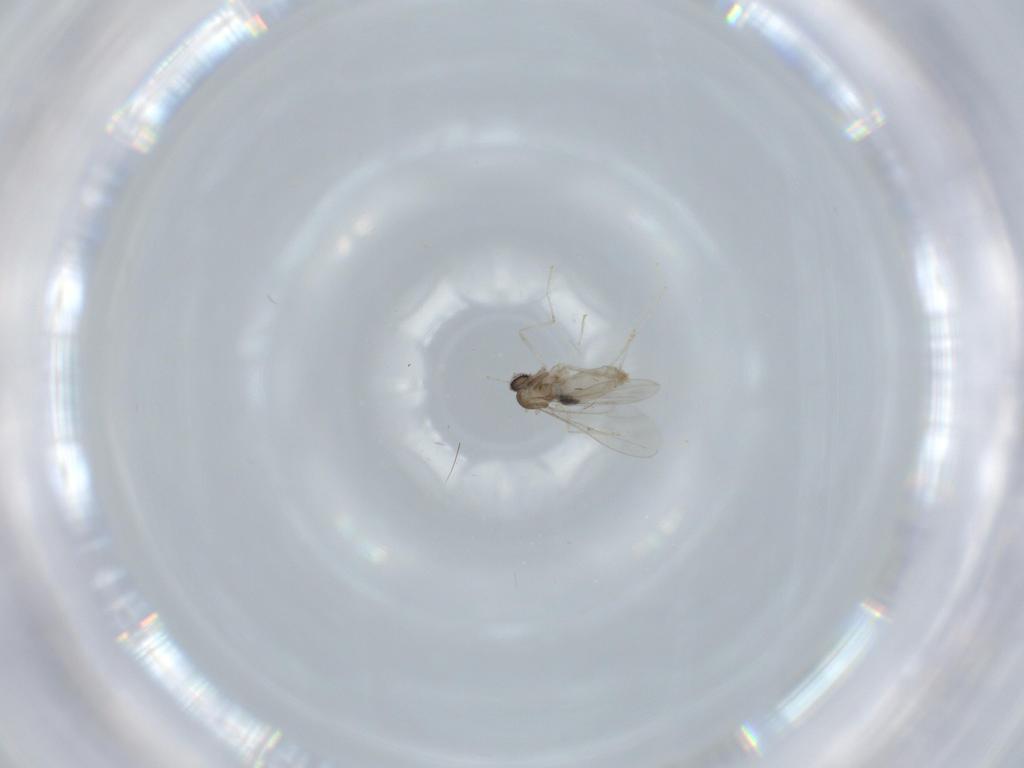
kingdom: Animalia
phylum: Arthropoda
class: Insecta
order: Diptera
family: Cecidomyiidae
